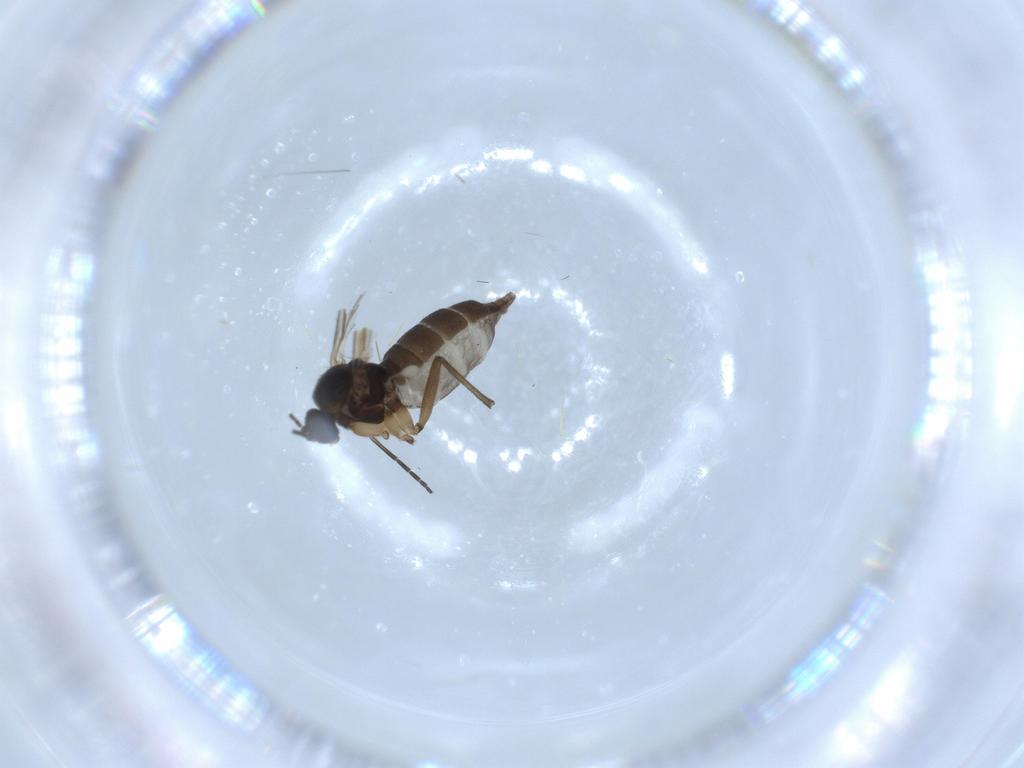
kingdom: Animalia
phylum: Arthropoda
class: Insecta
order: Diptera
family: Sciaridae
